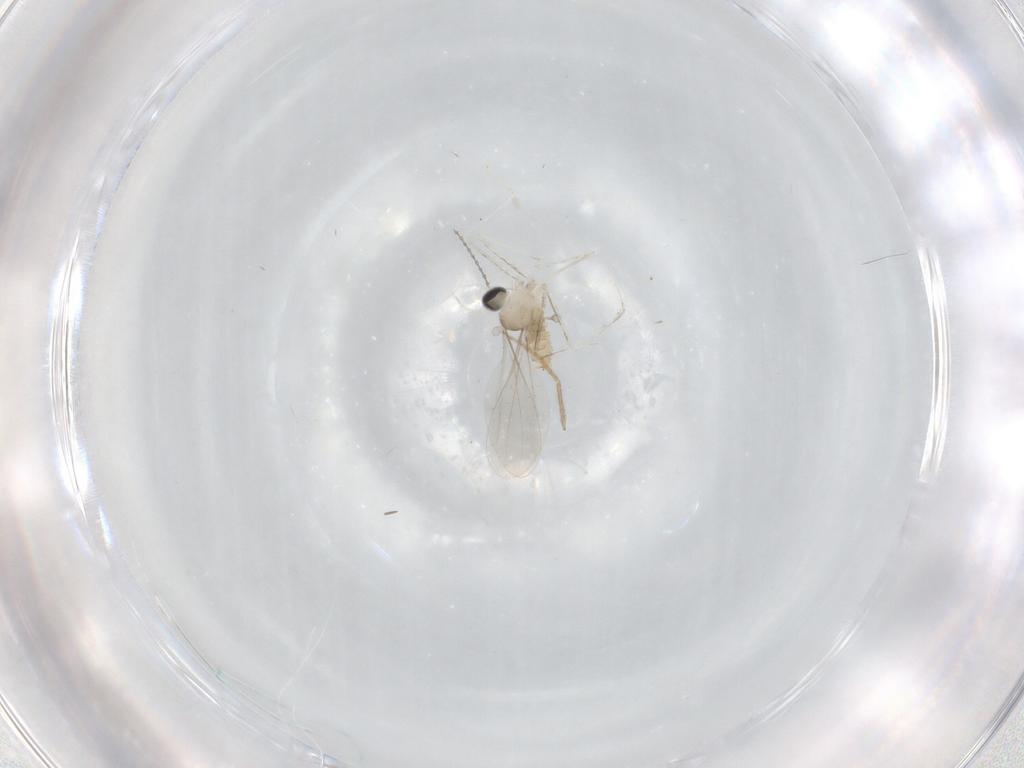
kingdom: Animalia
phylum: Arthropoda
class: Insecta
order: Diptera
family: Cecidomyiidae
